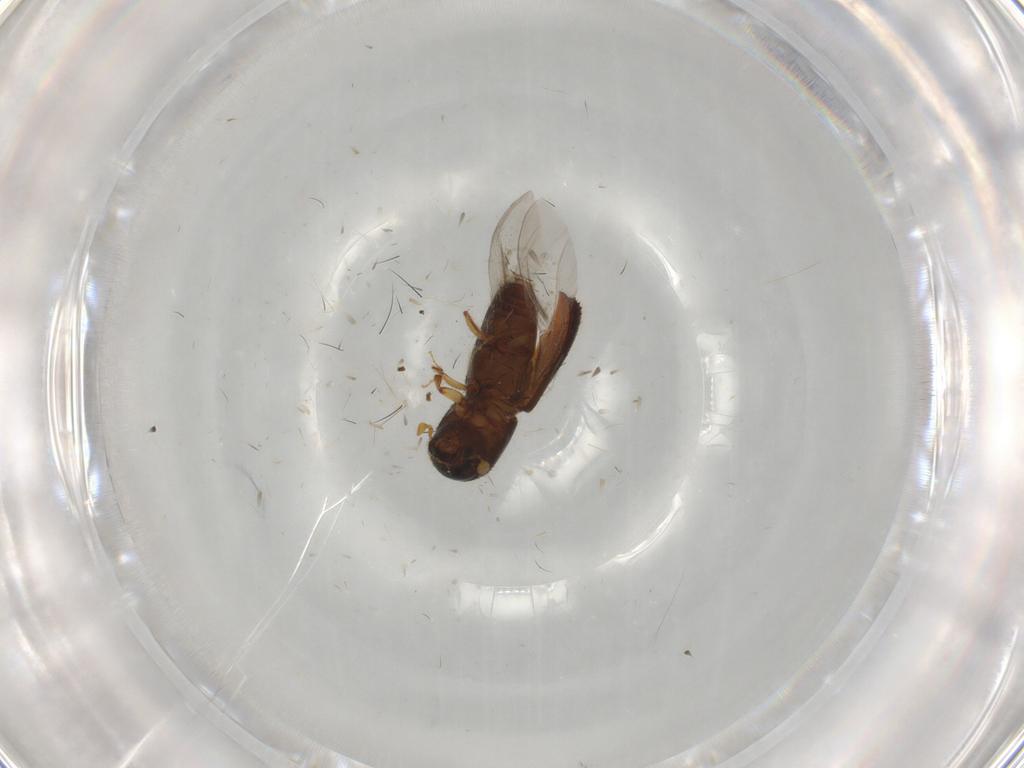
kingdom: Animalia
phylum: Arthropoda
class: Insecta
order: Coleoptera
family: Curculionidae
